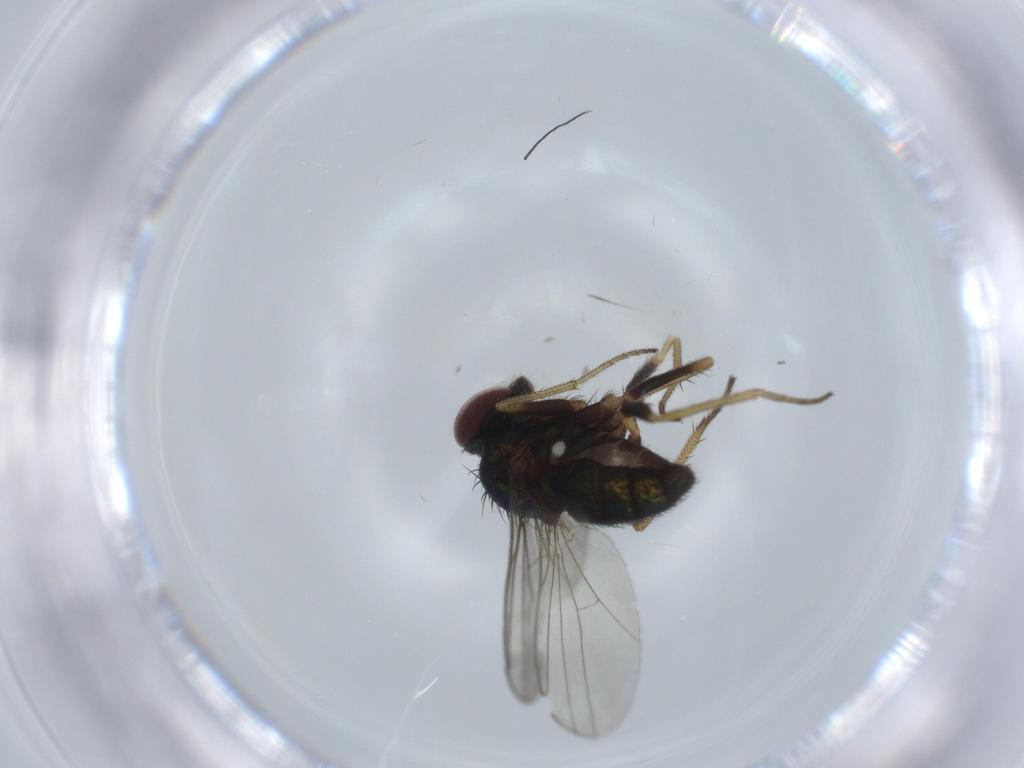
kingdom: Animalia
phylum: Arthropoda
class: Insecta
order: Diptera
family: Dolichopodidae
